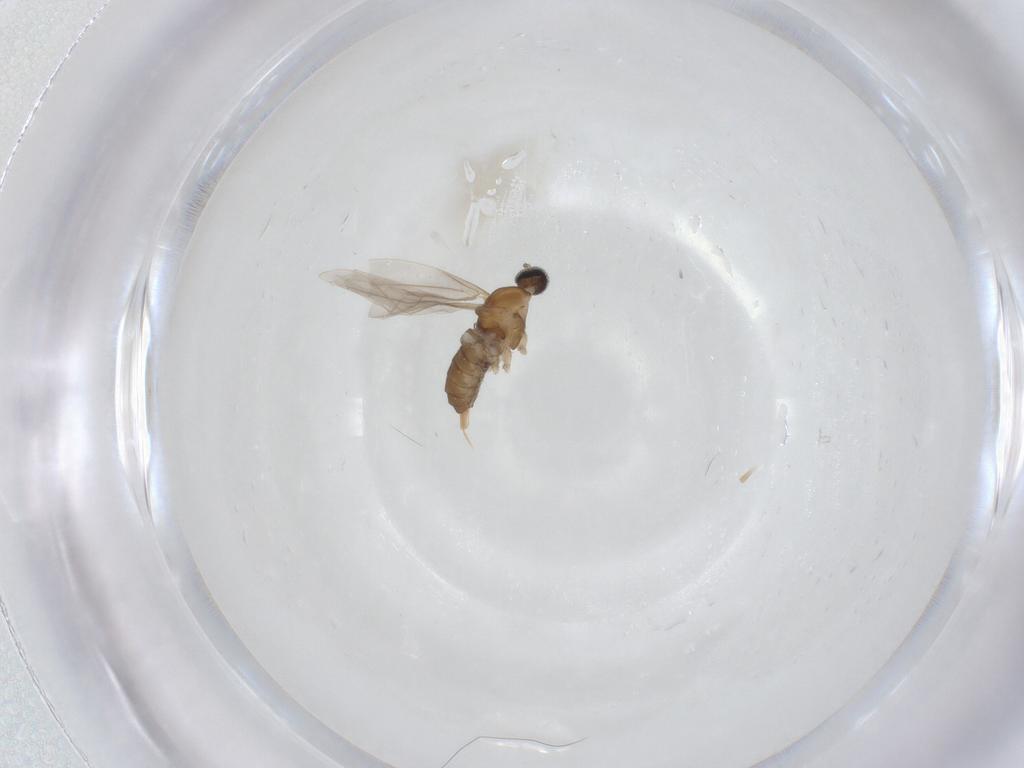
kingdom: Animalia
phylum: Arthropoda
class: Insecta
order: Diptera
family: Cecidomyiidae
